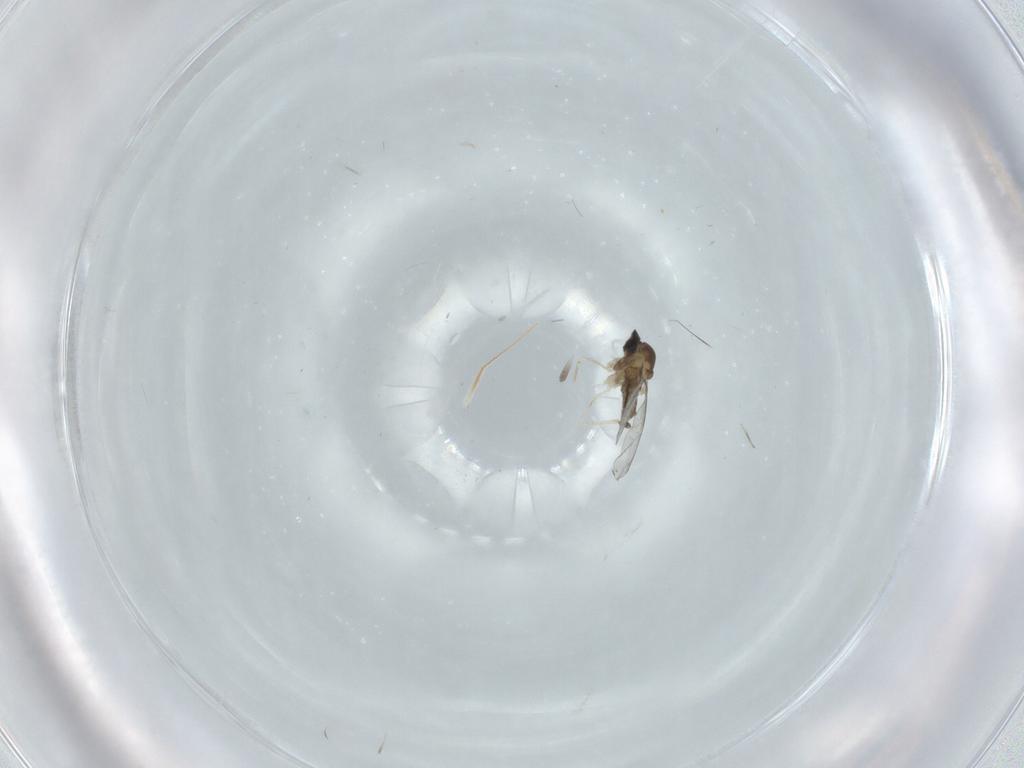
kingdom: Animalia
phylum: Arthropoda
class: Insecta
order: Diptera
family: Cecidomyiidae
